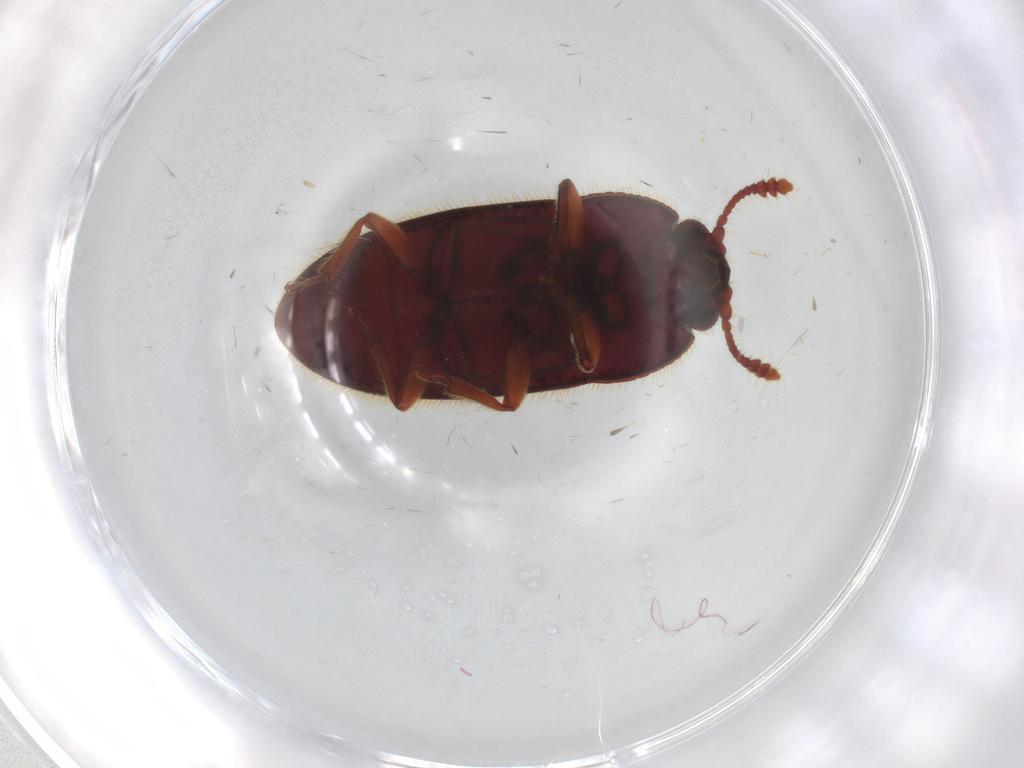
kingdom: Animalia
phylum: Arthropoda
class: Insecta
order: Coleoptera
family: Biphyllidae
